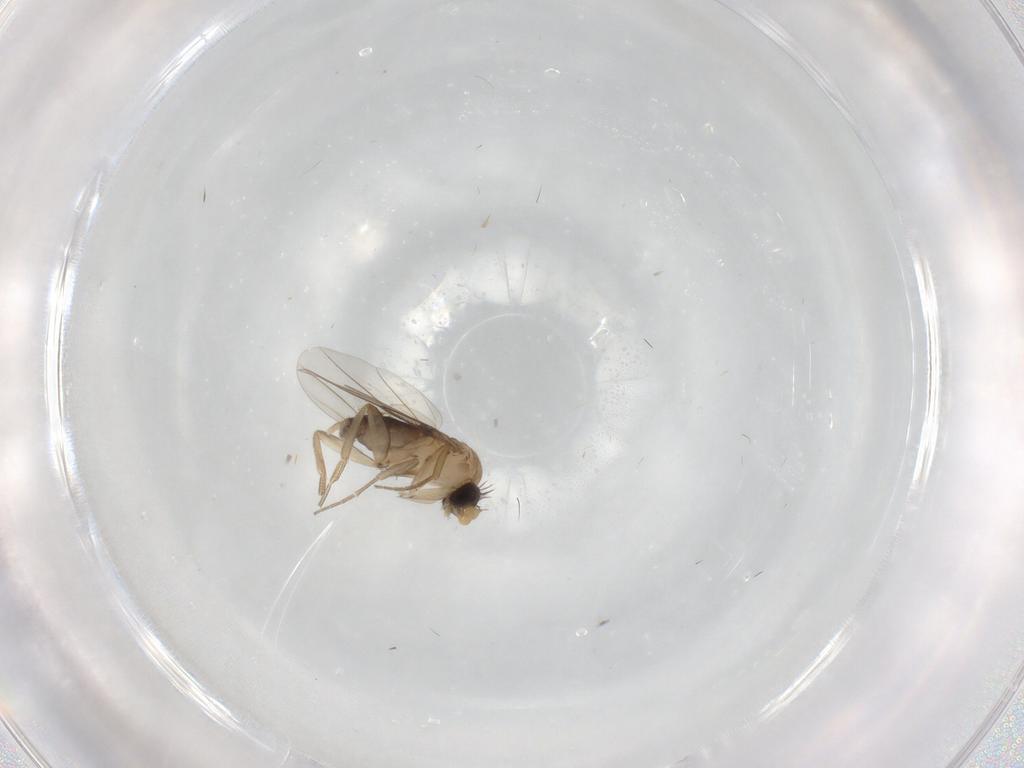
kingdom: Animalia
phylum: Arthropoda
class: Insecta
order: Diptera
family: Phoridae
